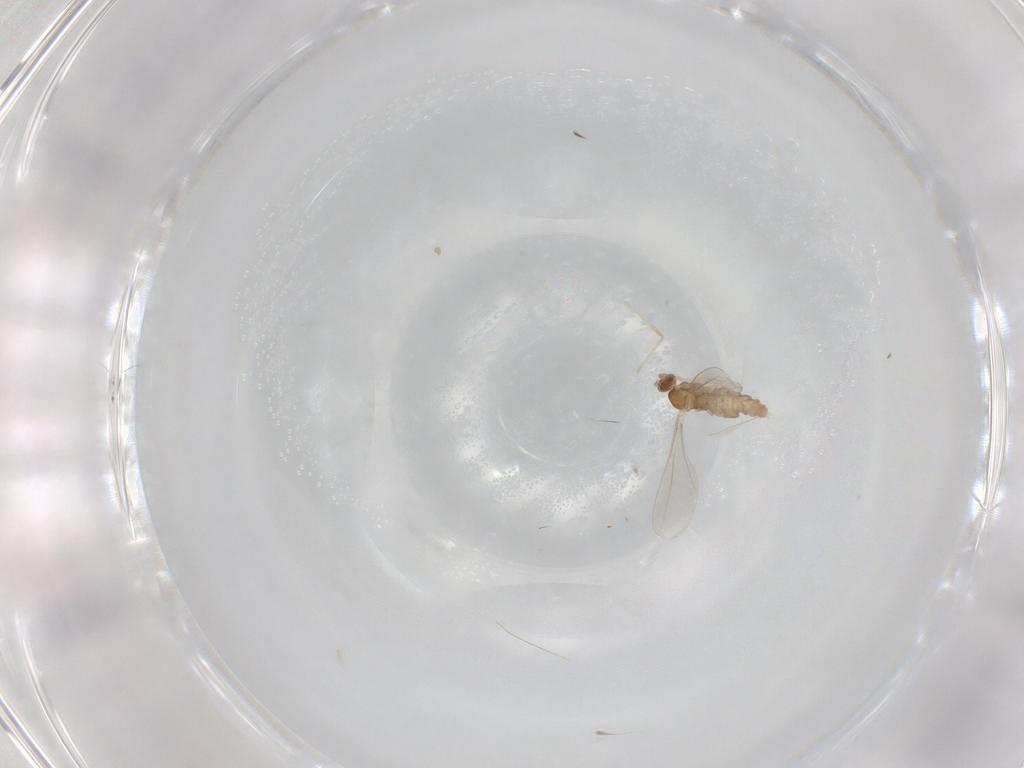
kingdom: Animalia
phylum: Arthropoda
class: Insecta
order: Diptera
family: Cecidomyiidae
